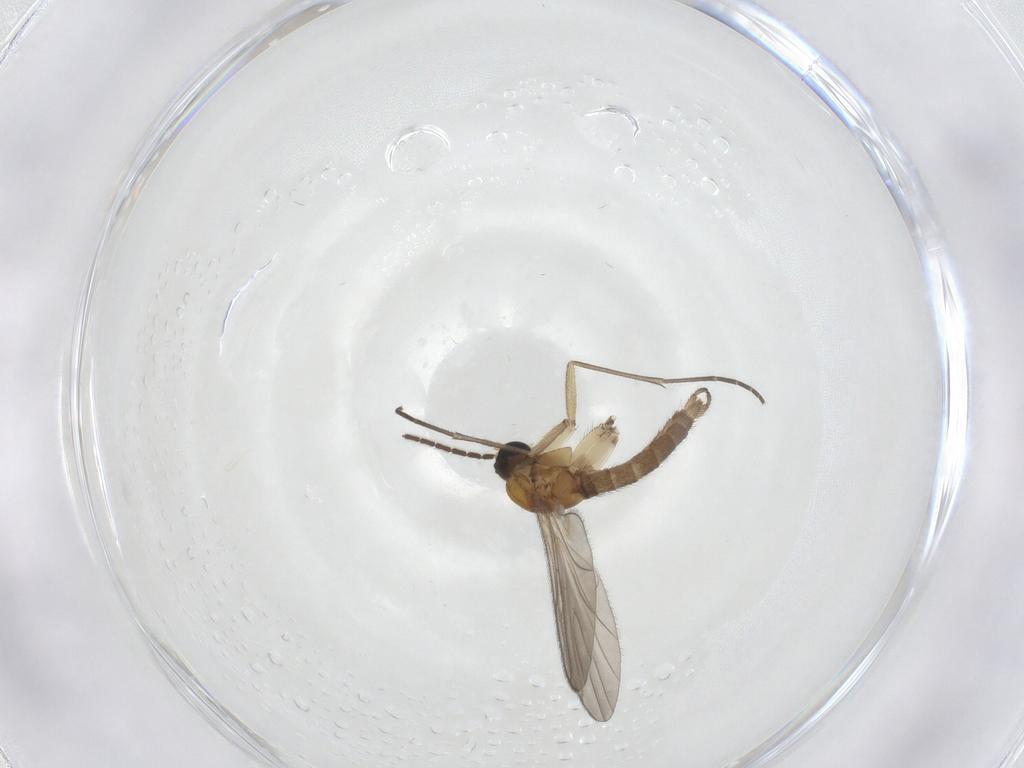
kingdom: Animalia
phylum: Arthropoda
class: Insecta
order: Diptera
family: Sciaridae
